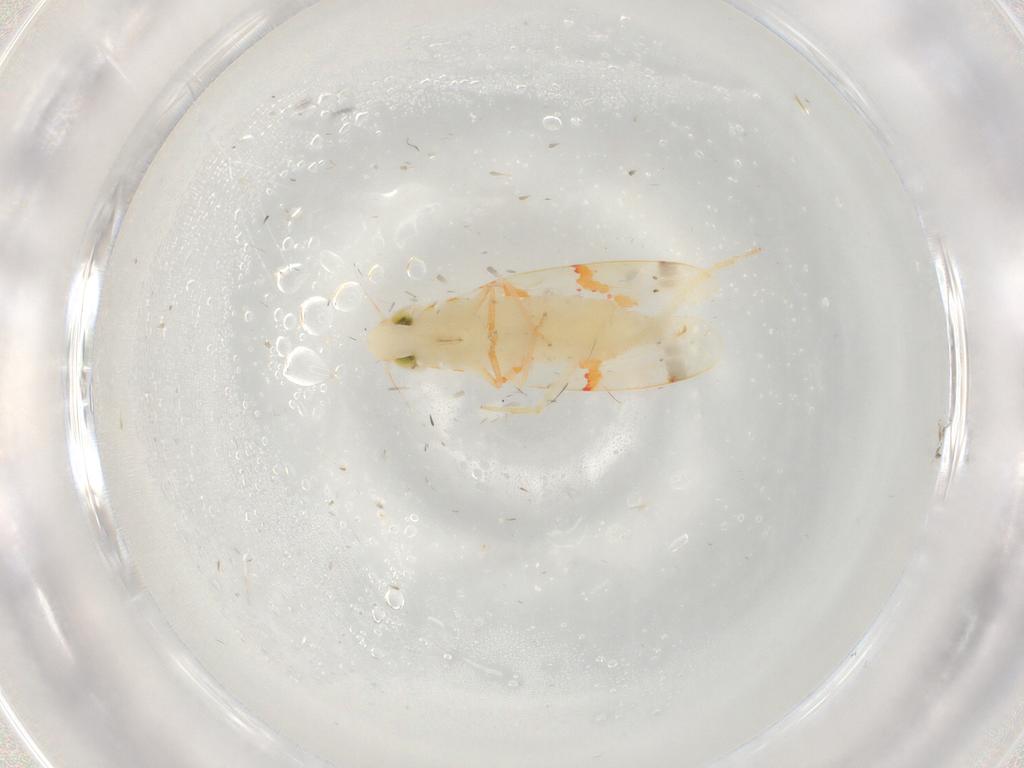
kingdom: Animalia
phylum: Arthropoda
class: Insecta
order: Hemiptera
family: Cicadellidae
